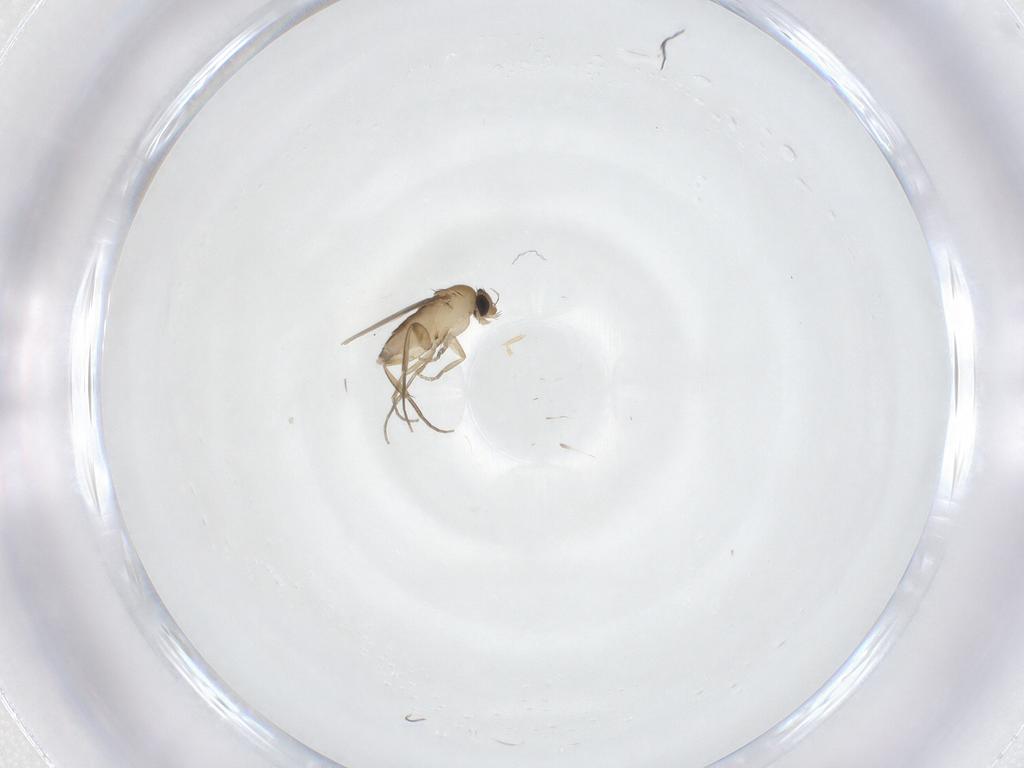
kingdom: Animalia
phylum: Arthropoda
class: Insecta
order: Diptera
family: Phoridae
